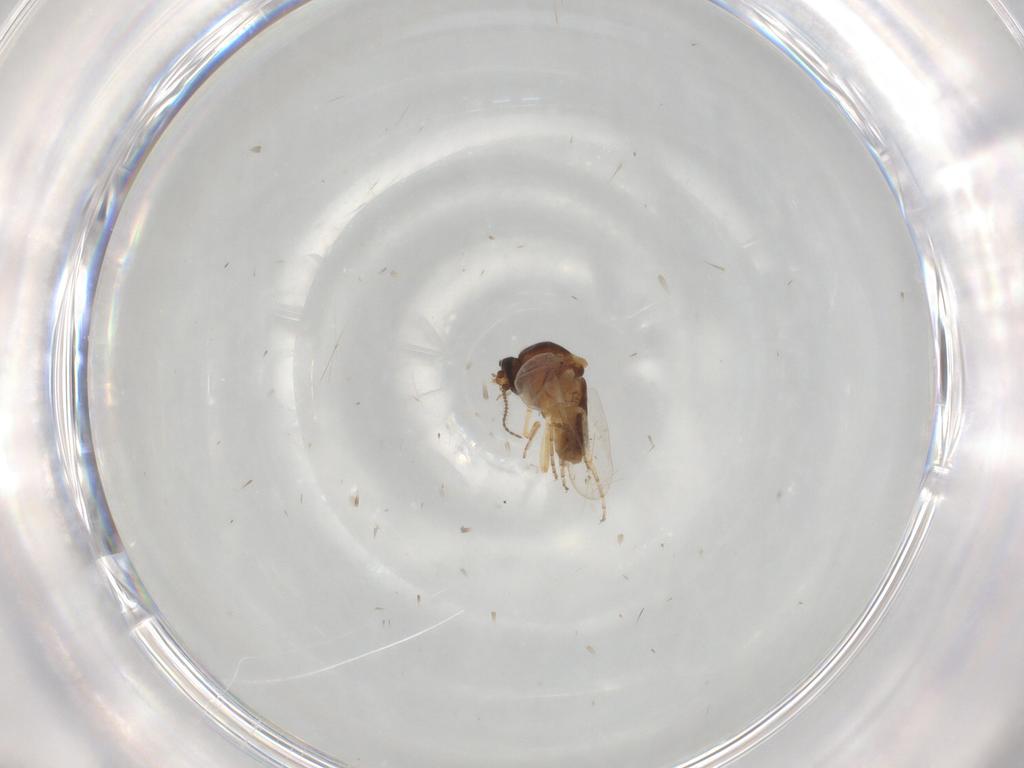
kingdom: Animalia
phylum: Arthropoda
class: Insecta
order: Diptera
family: Ceratopogonidae
